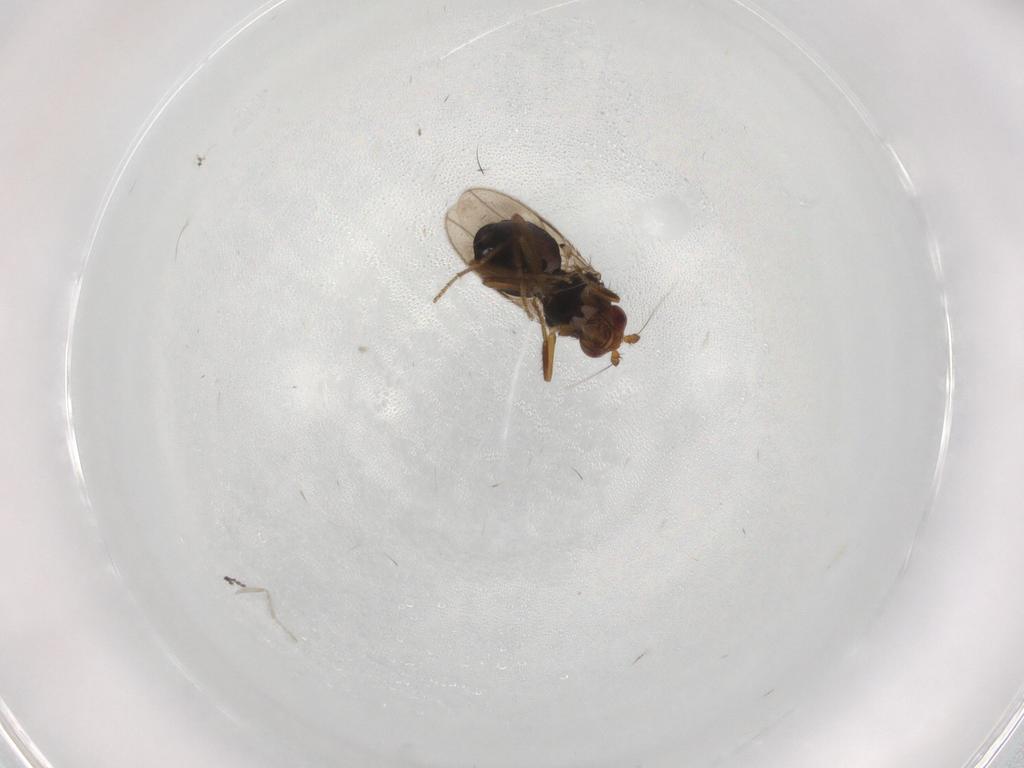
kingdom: Animalia
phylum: Arthropoda
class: Insecta
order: Diptera
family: Sphaeroceridae
